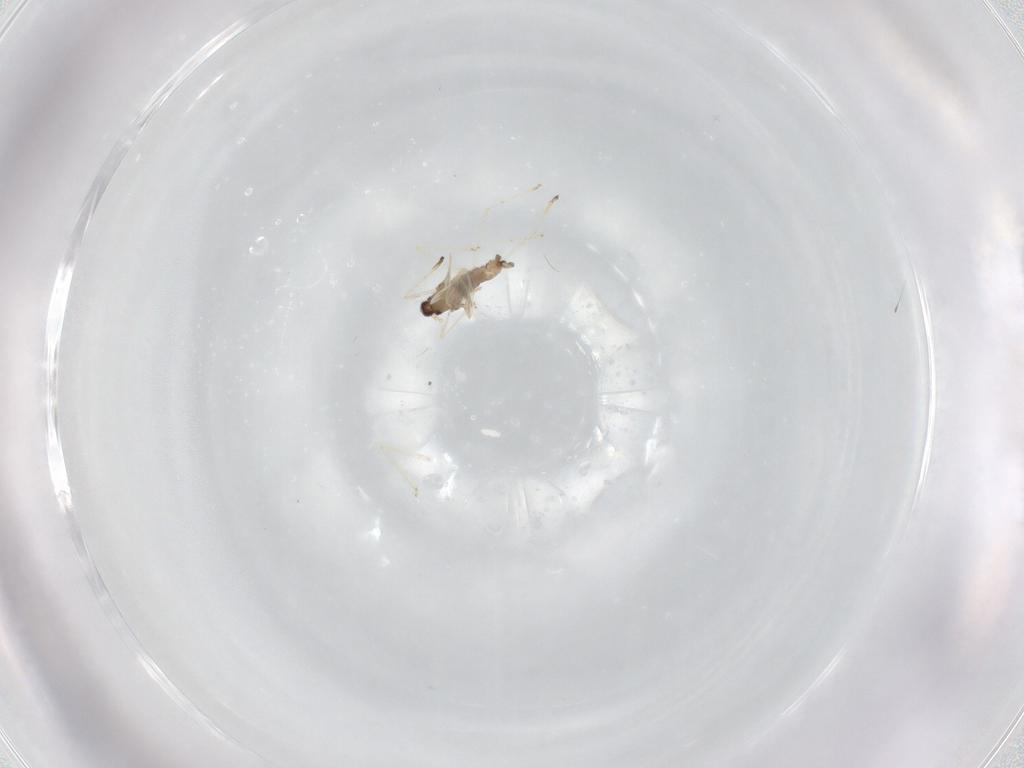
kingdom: Animalia
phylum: Arthropoda
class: Insecta
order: Diptera
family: Cecidomyiidae
